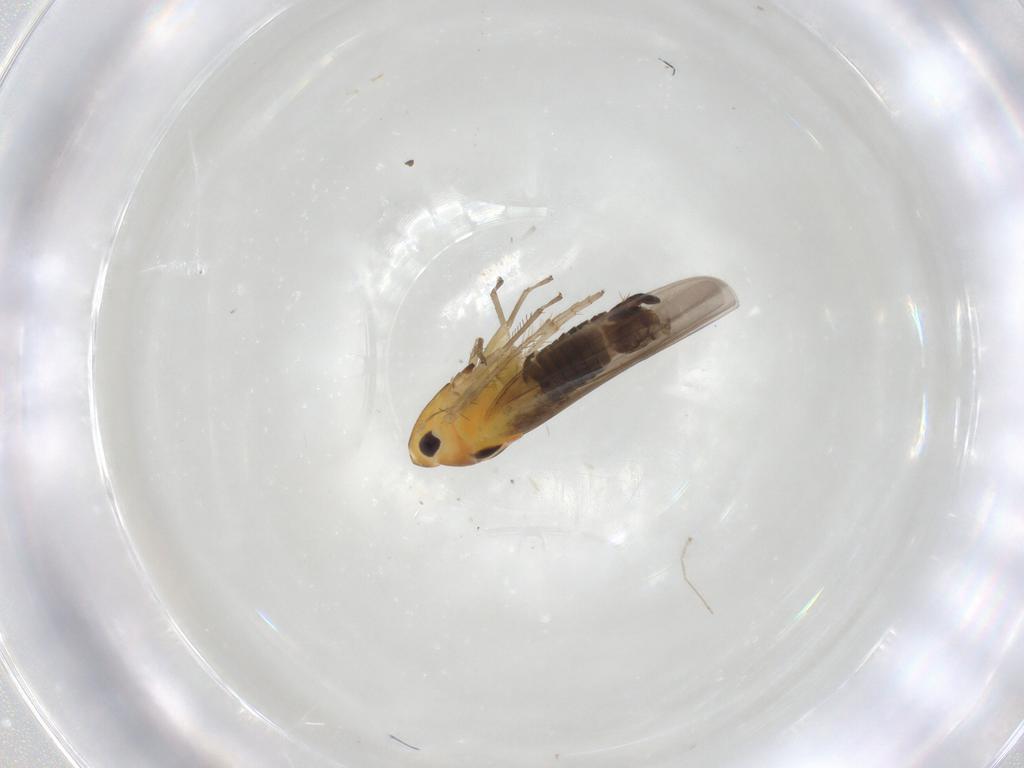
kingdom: Animalia
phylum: Arthropoda
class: Insecta
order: Hemiptera
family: Cicadellidae
